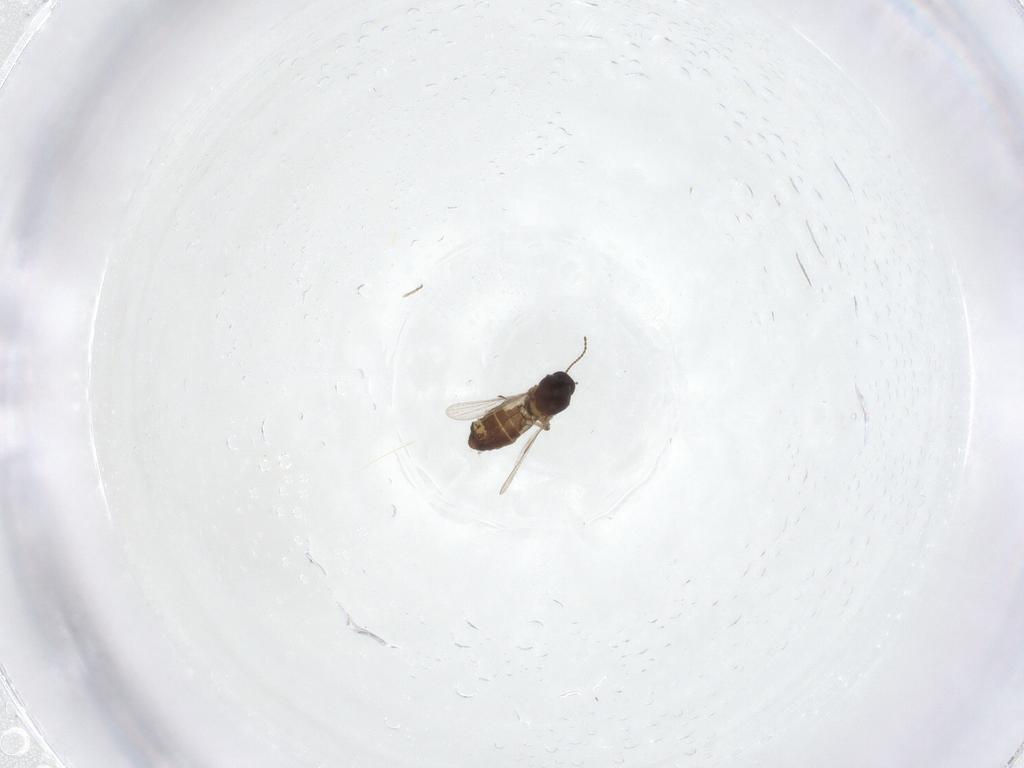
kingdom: Animalia
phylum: Arthropoda
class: Insecta
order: Diptera
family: Ceratopogonidae
